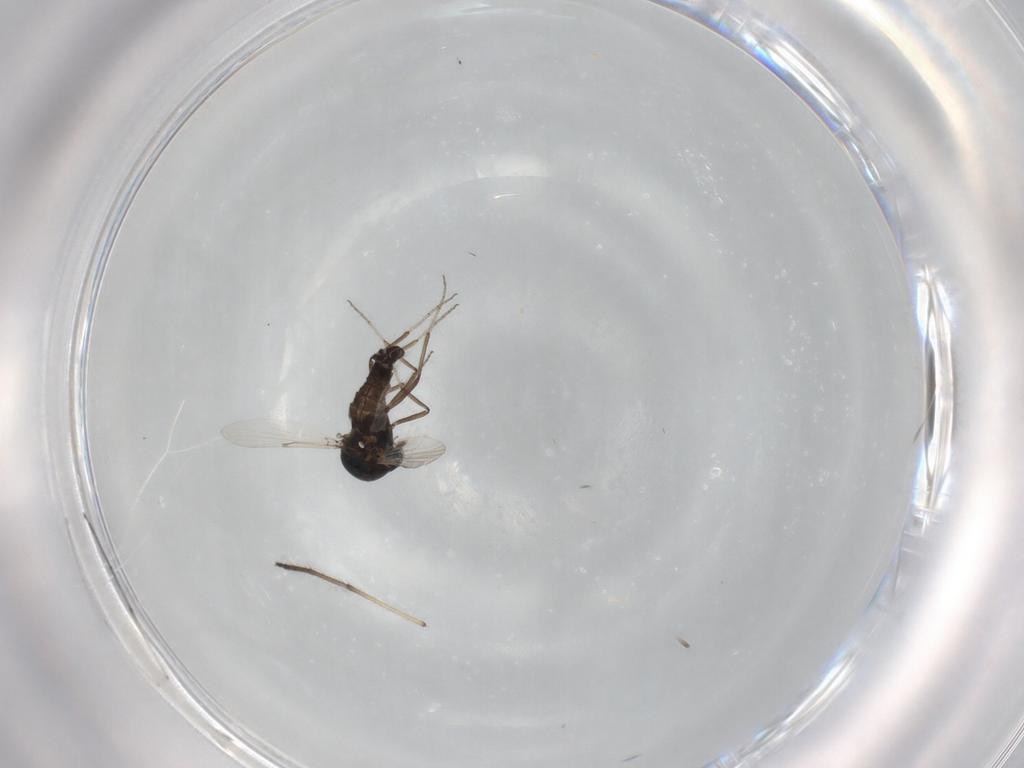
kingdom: Animalia
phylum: Arthropoda
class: Insecta
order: Diptera
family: Ceratopogonidae
